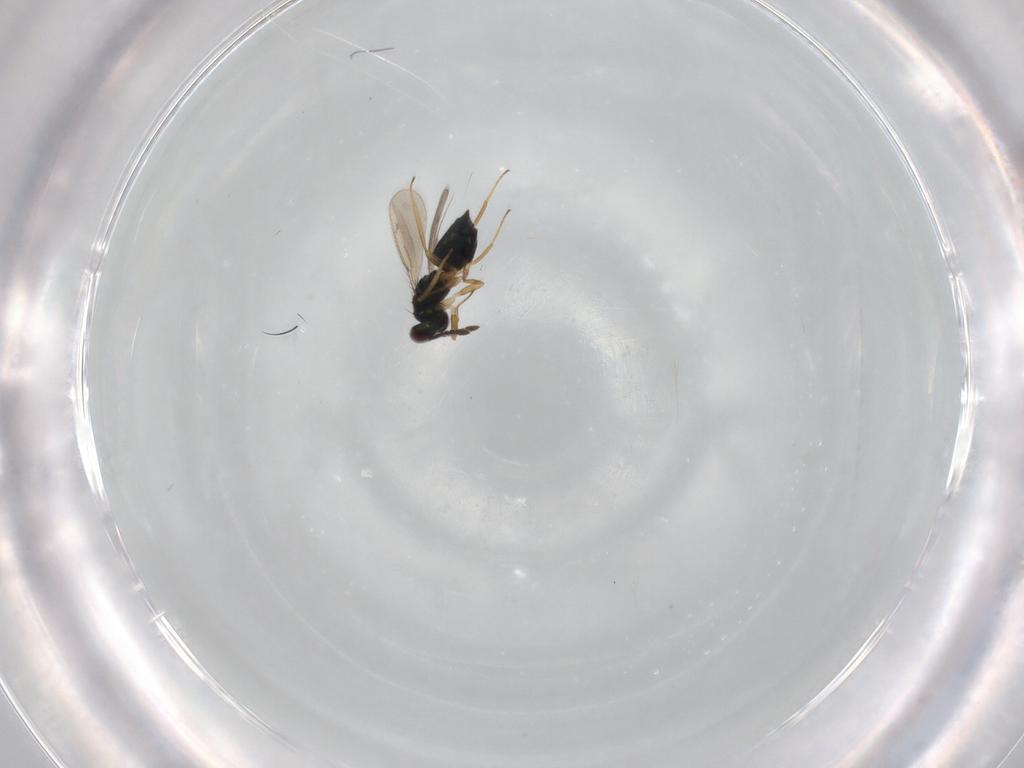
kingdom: Animalia
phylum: Arthropoda
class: Insecta
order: Hymenoptera
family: Tetracampidae
